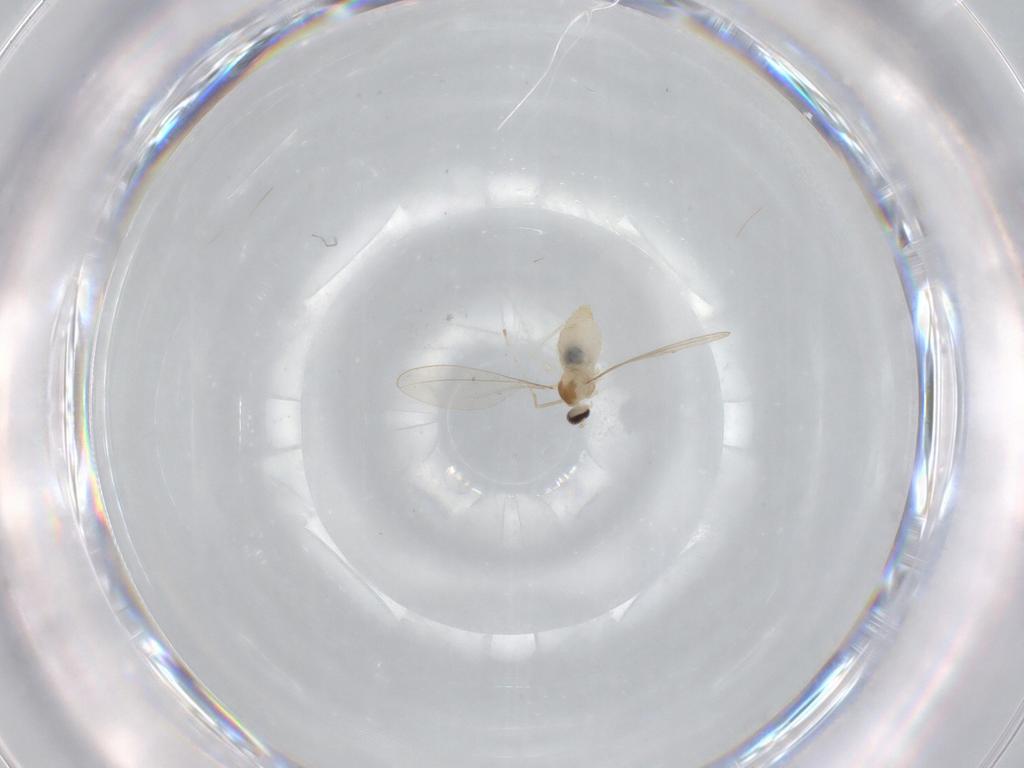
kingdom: Animalia
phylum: Arthropoda
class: Insecta
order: Diptera
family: Cecidomyiidae
